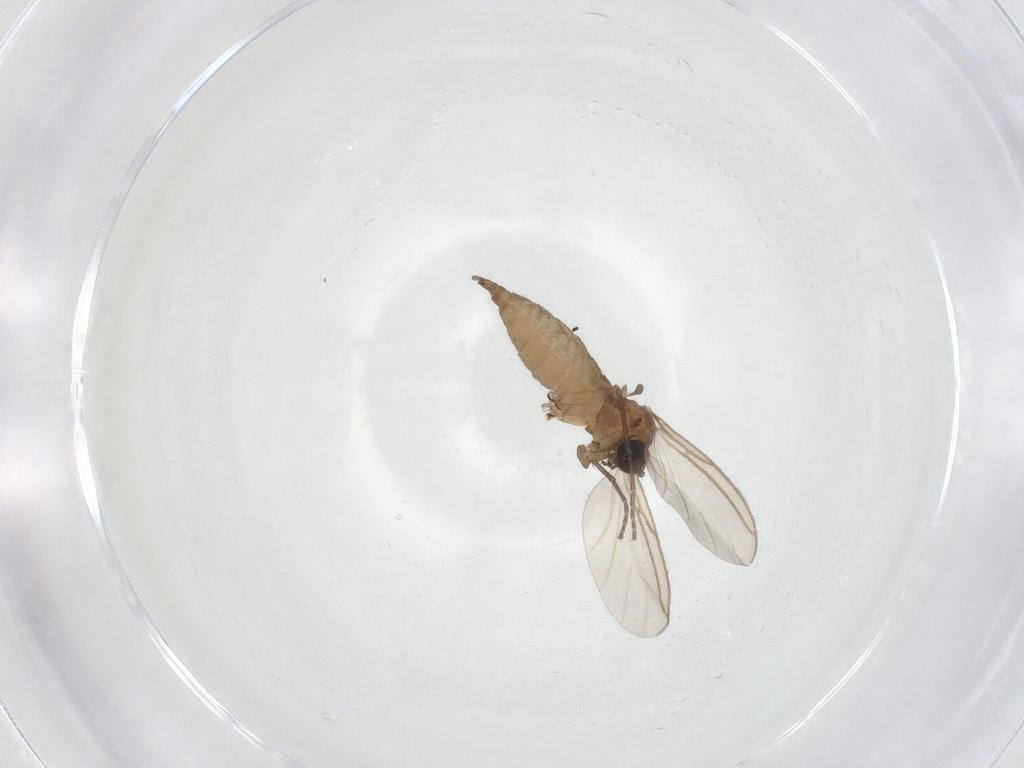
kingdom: Animalia
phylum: Arthropoda
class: Insecta
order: Diptera
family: Sciaridae
